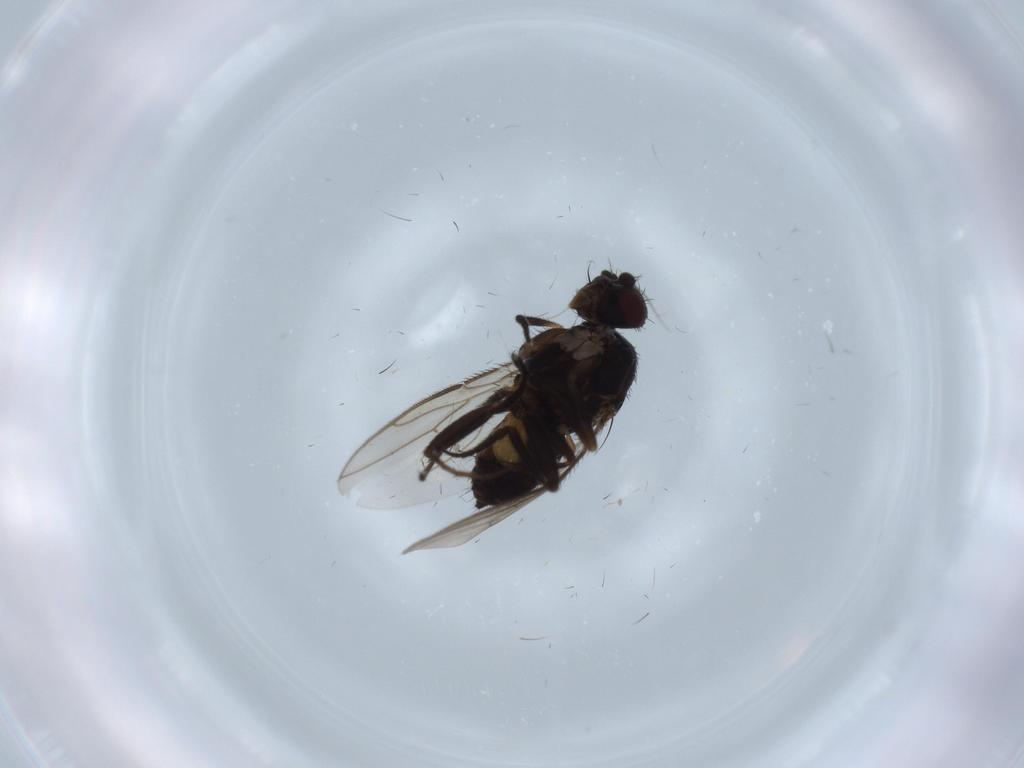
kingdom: Animalia
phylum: Arthropoda
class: Insecta
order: Diptera
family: Sphaeroceridae
